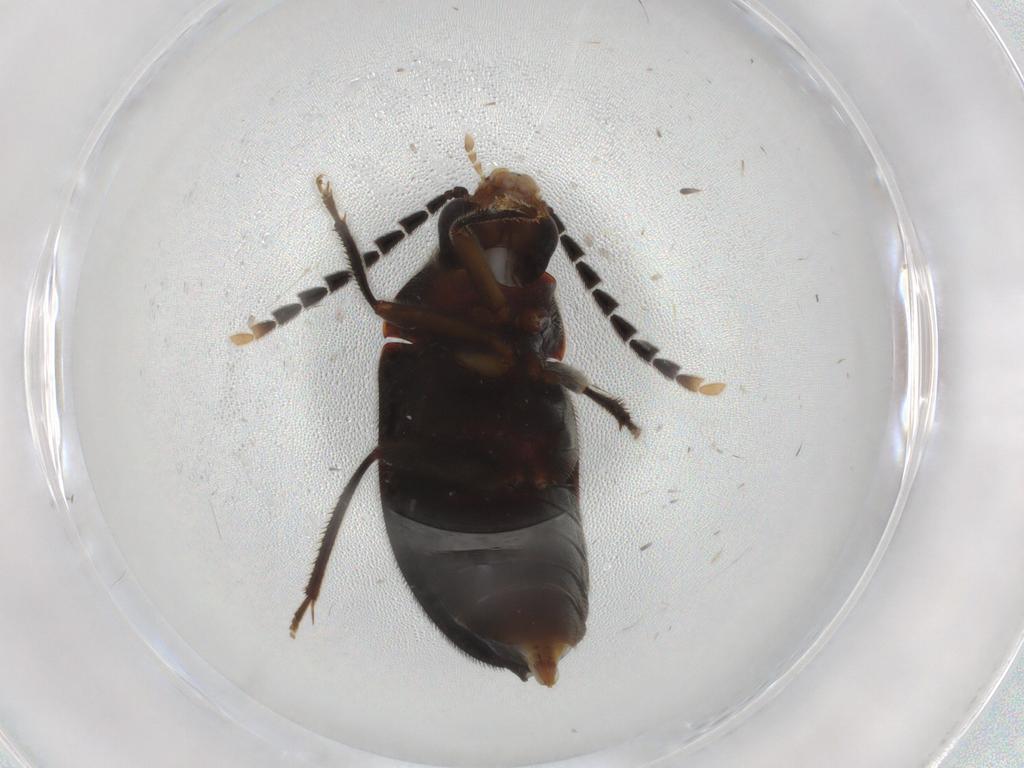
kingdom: Animalia
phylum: Arthropoda
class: Insecta
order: Coleoptera
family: Ptilodactylidae
